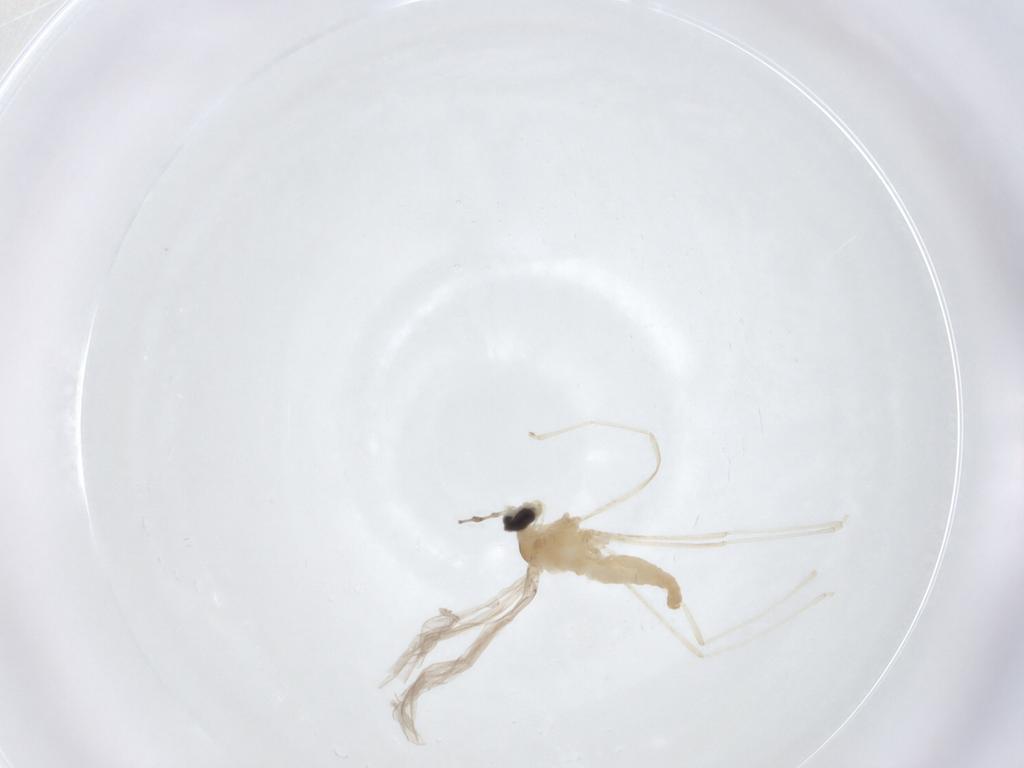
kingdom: Animalia
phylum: Arthropoda
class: Insecta
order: Diptera
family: Cecidomyiidae
